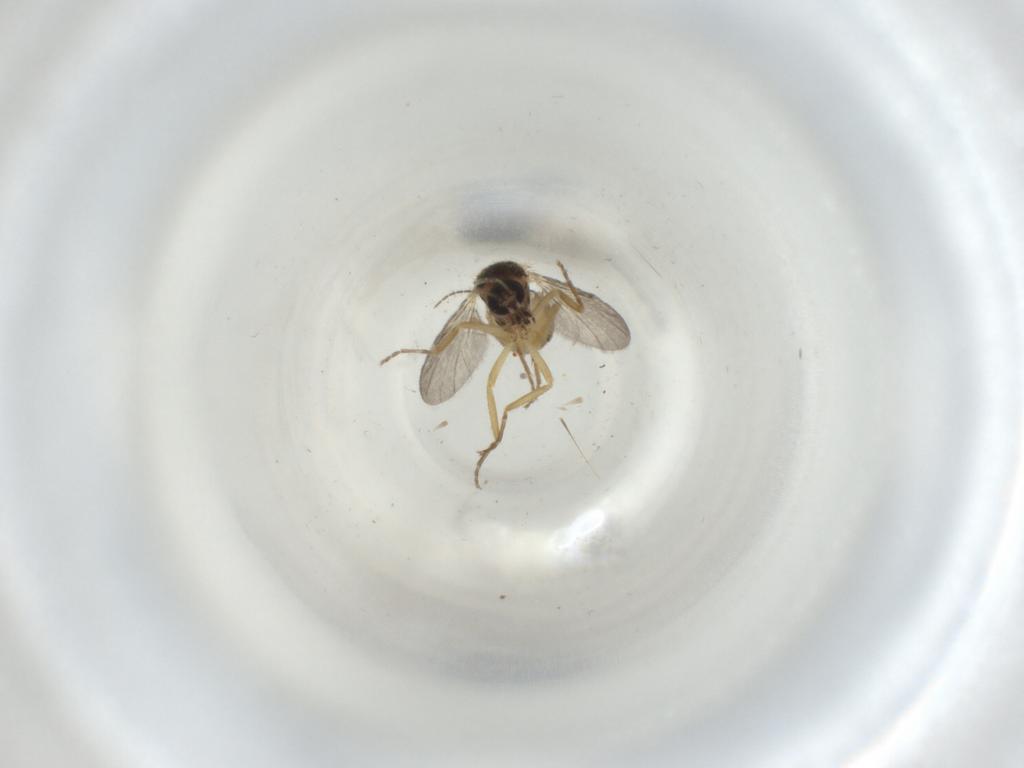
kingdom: Animalia
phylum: Arthropoda
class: Insecta
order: Diptera
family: Ceratopogonidae
